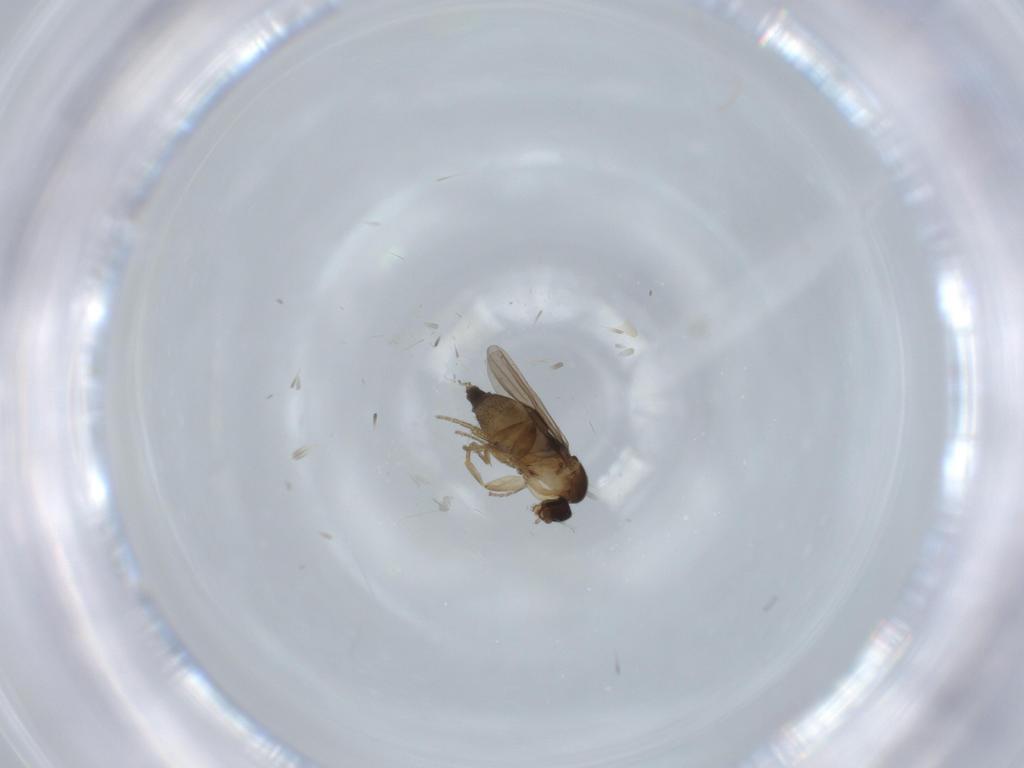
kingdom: Animalia
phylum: Arthropoda
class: Insecta
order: Diptera
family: Phoridae
